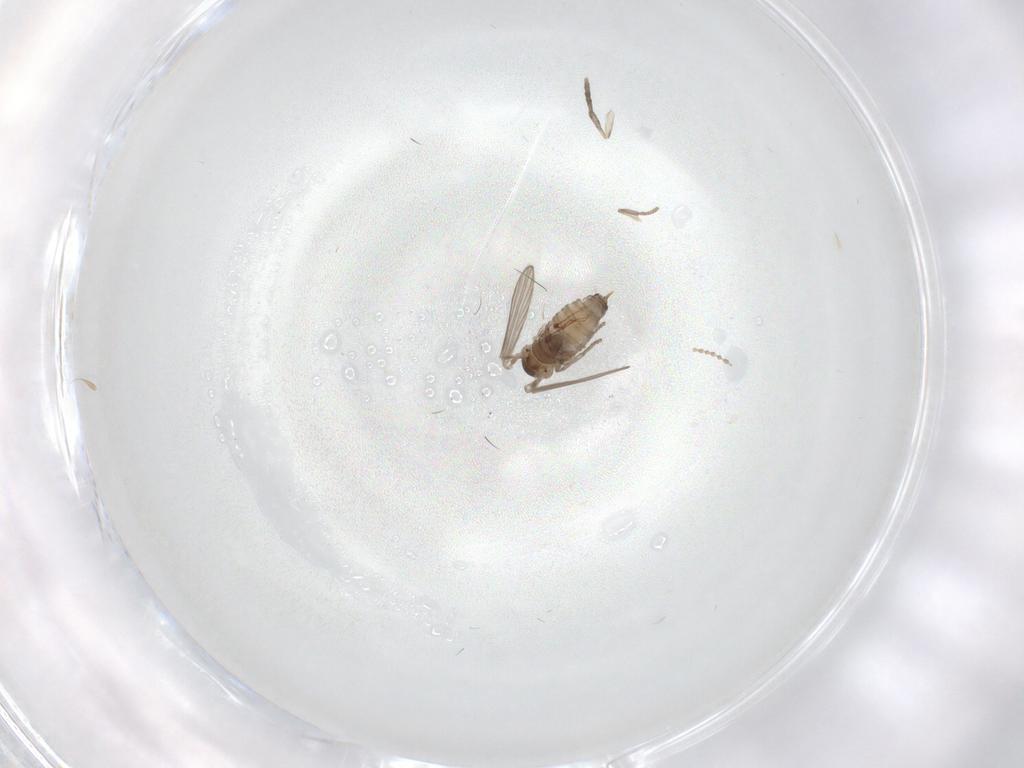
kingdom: Animalia
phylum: Arthropoda
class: Insecta
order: Diptera
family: Psychodidae
